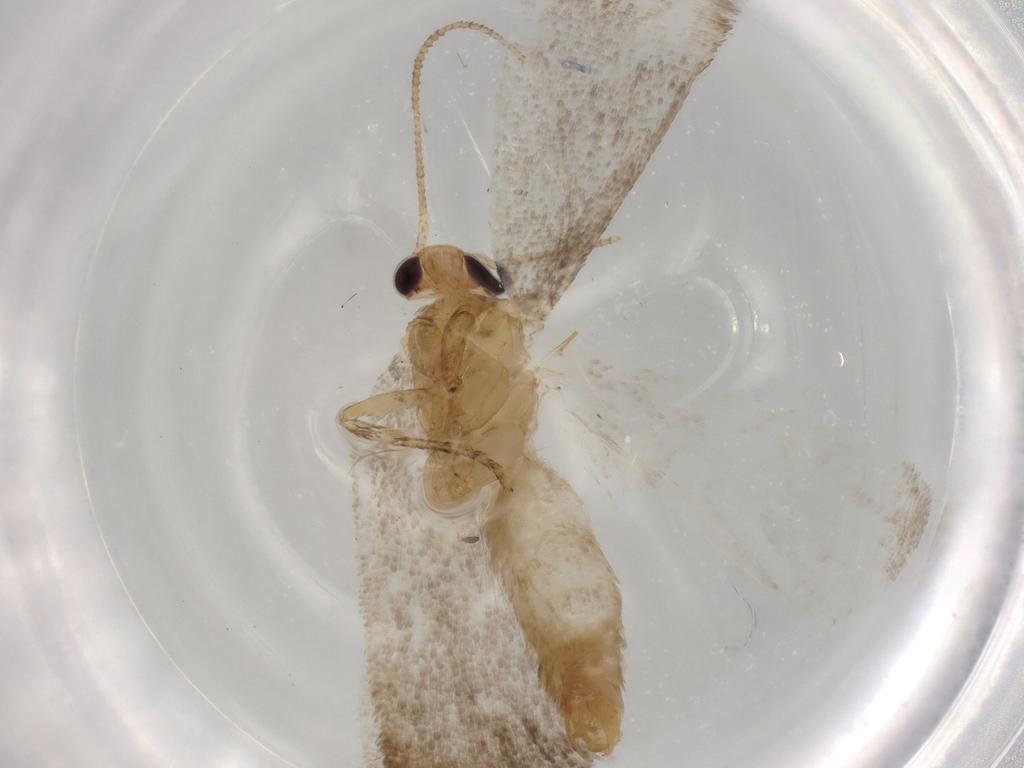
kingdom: Animalia
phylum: Arthropoda
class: Insecta
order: Lepidoptera
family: Oecophoridae
